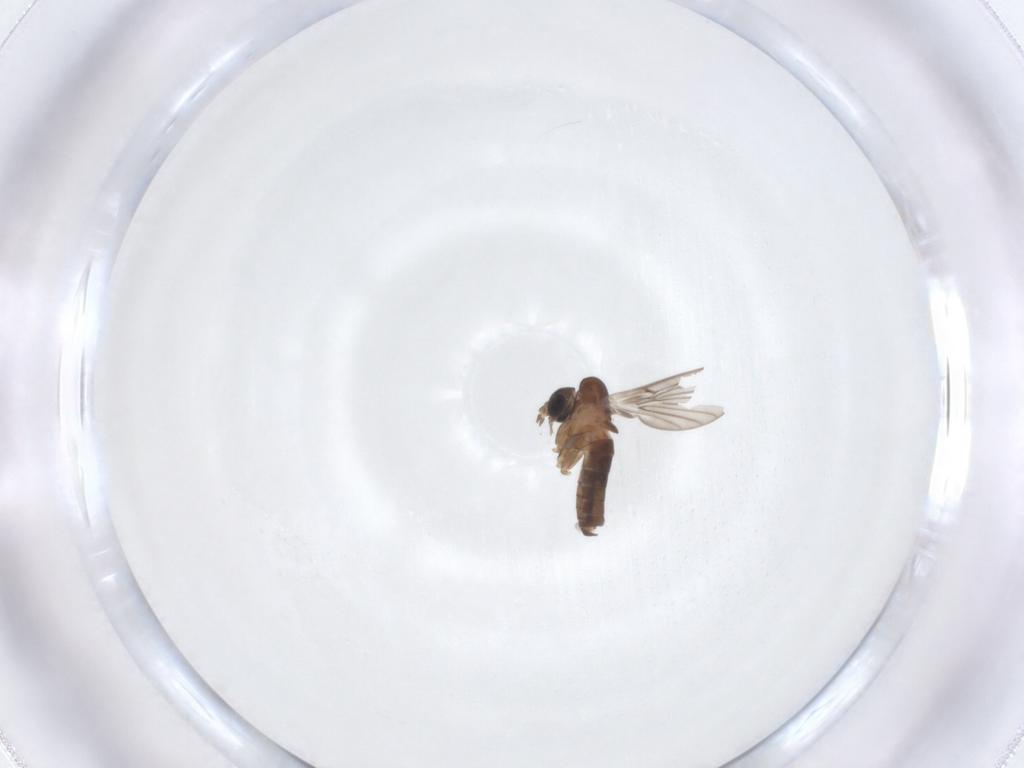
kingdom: Animalia
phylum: Arthropoda
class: Insecta
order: Diptera
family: Psychodidae
